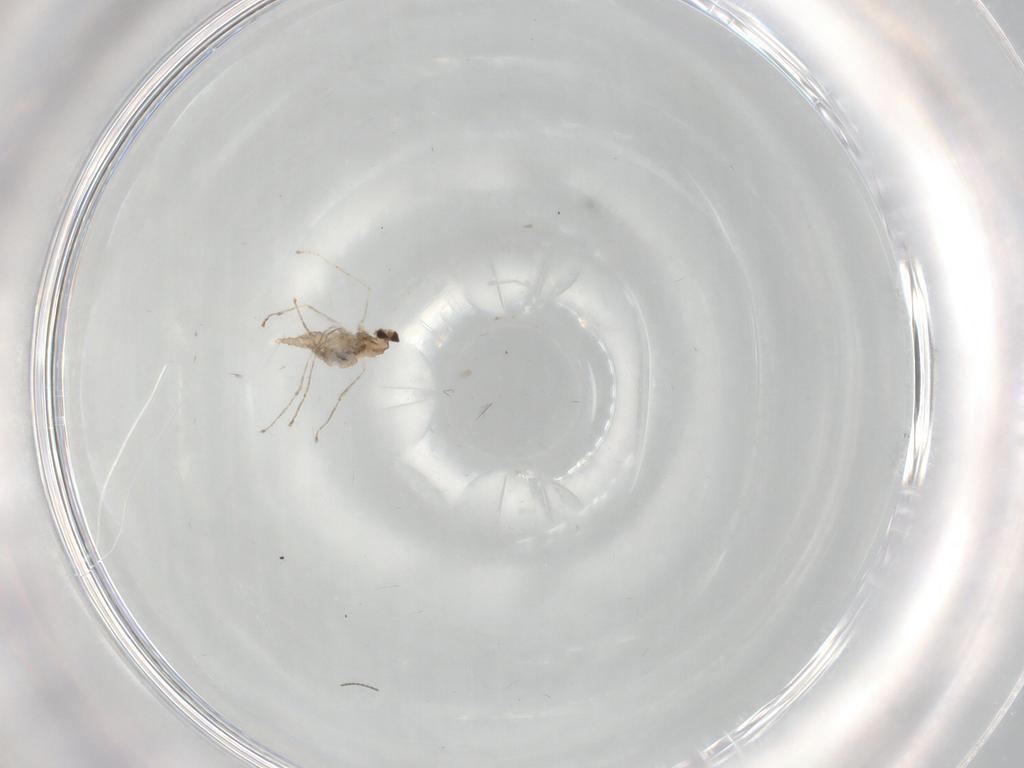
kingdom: Animalia
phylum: Arthropoda
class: Insecta
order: Diptera
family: Cecidomyiidae
